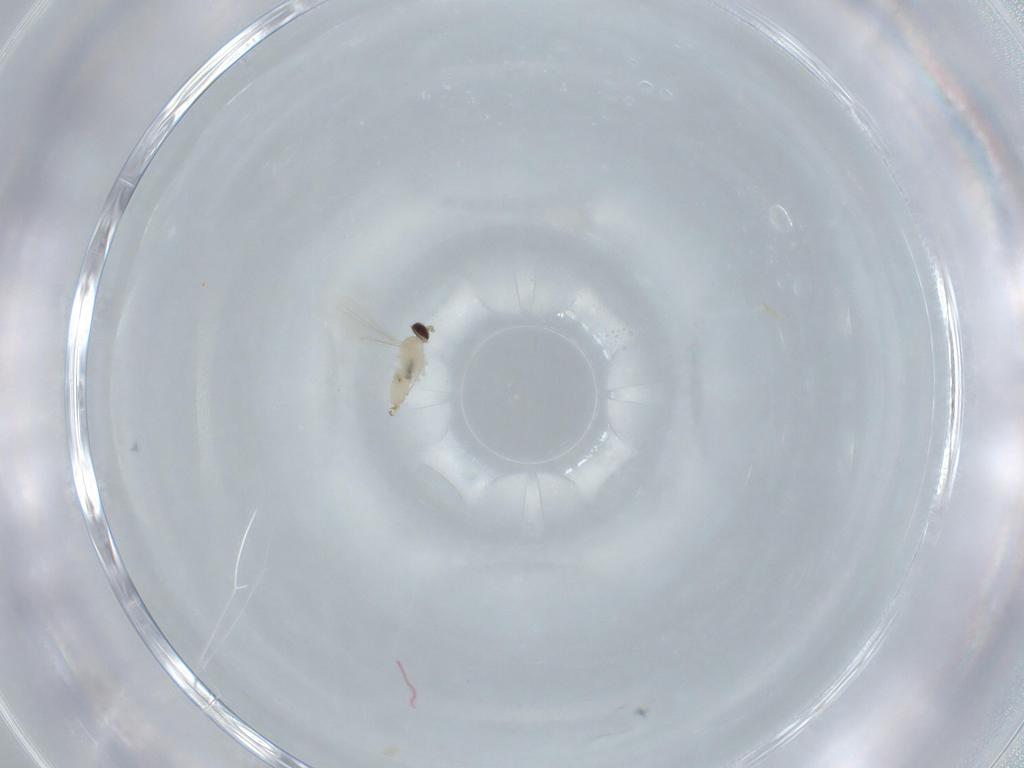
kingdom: Animalia
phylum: Arthropoda
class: Insecta
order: Diptera
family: Cecidomyiidae
